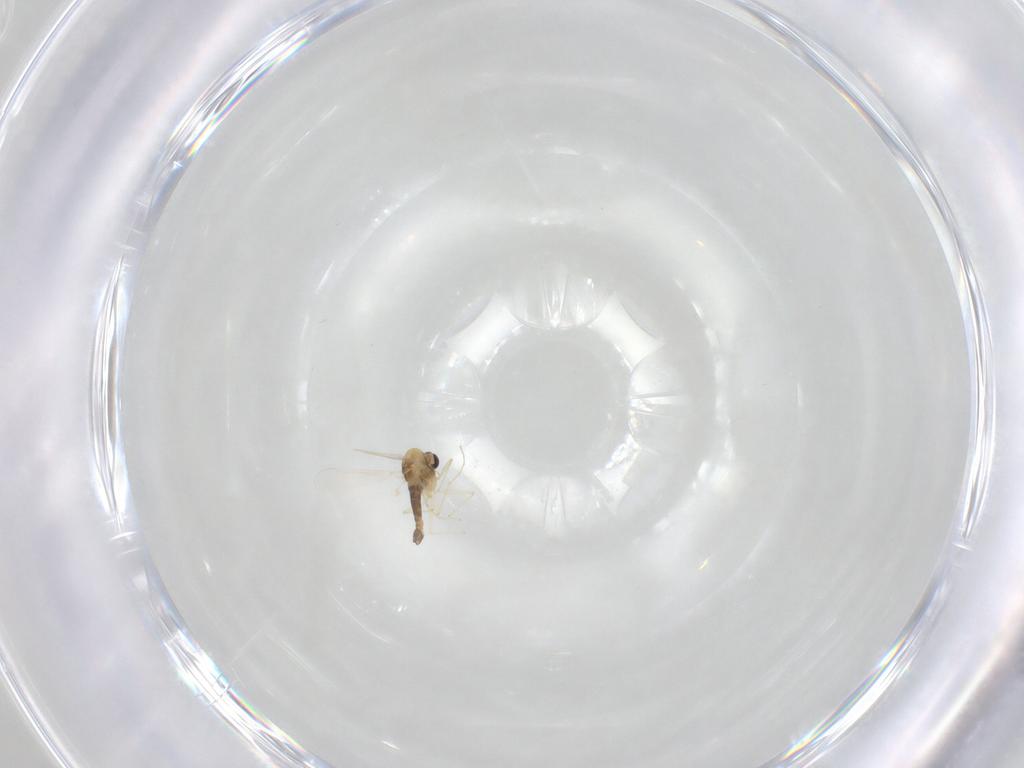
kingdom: Animalia
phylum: Arthropoda
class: Insecta
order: Diptera
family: Chironomidae
